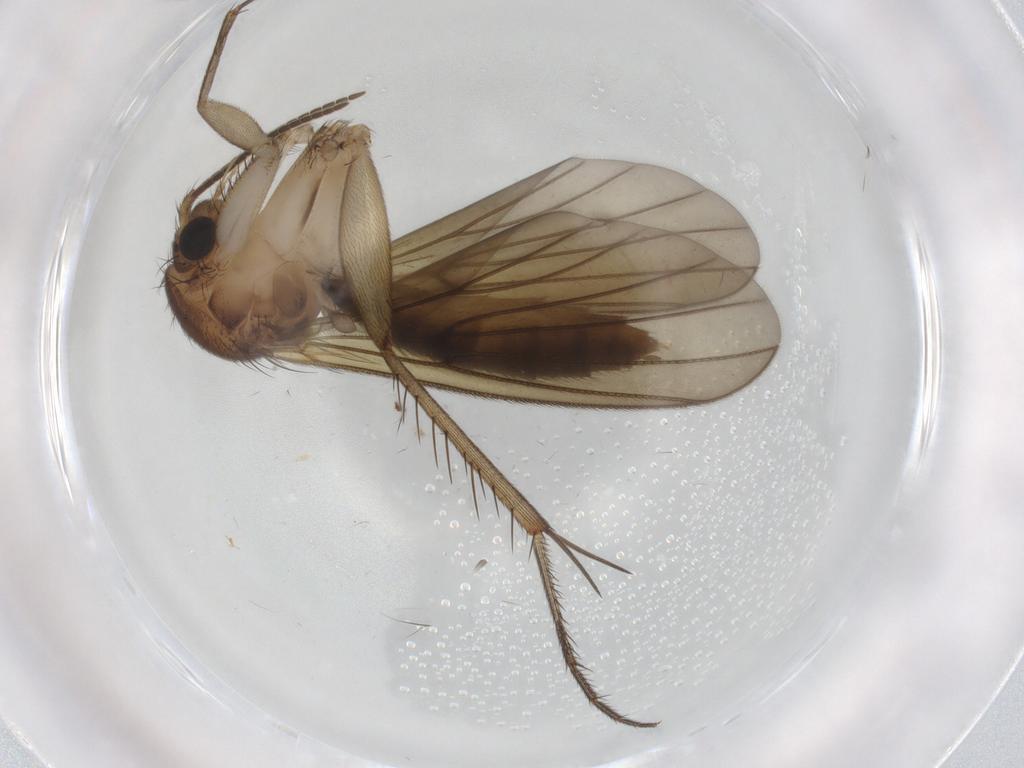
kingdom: Animalia
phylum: Arthropoda
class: Insecta
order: Diptera
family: Mycetophilidae
